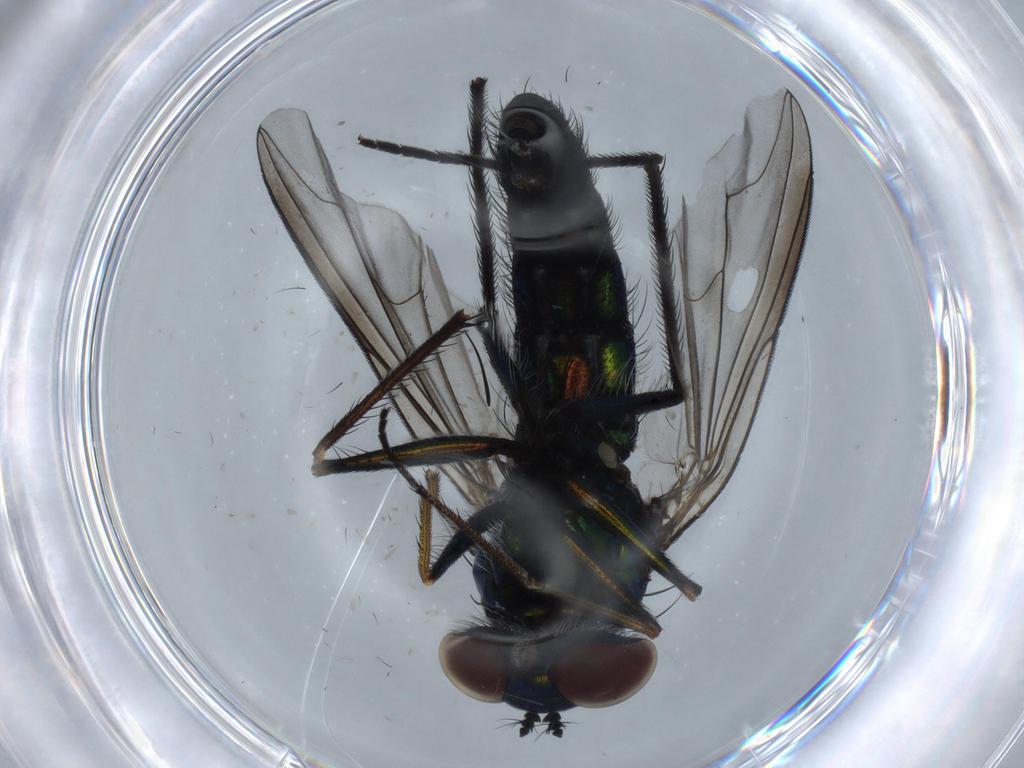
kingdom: Animalia
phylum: Arthropoda
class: Insecta
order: Diptera
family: Dolichopodidae
